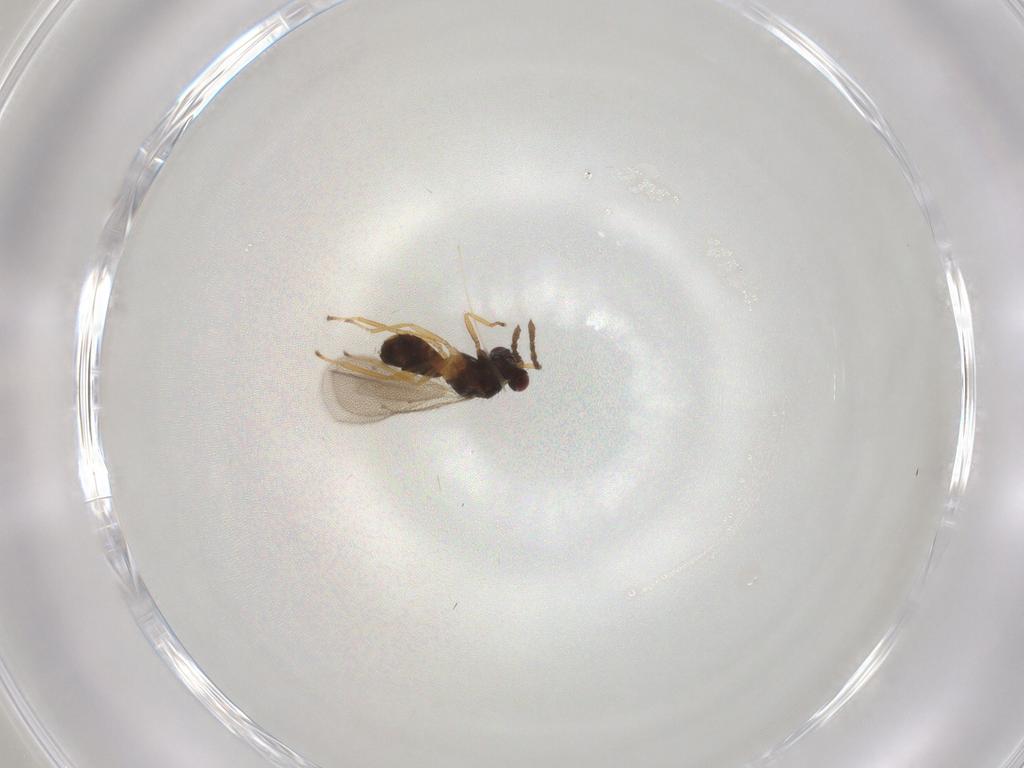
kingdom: Animalia
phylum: Arthropoda
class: Insecta
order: Hymenoptera
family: Eulophidae
